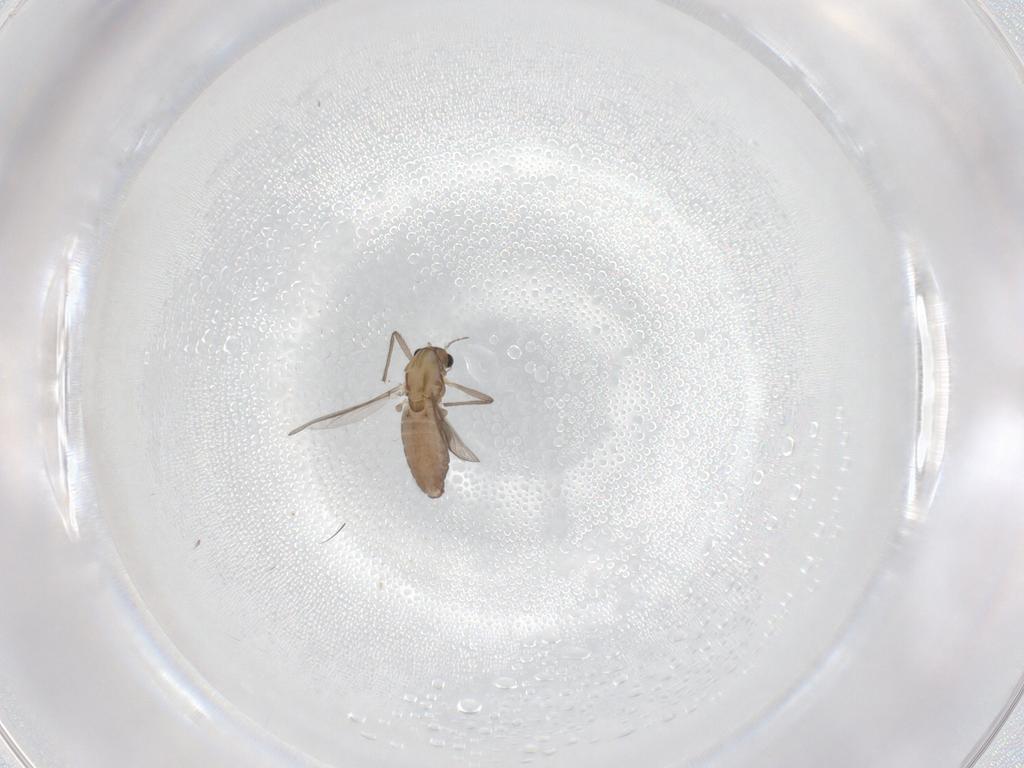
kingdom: Animalia
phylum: Arthropoda
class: Insecta
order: Diptera
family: Chironomidae
